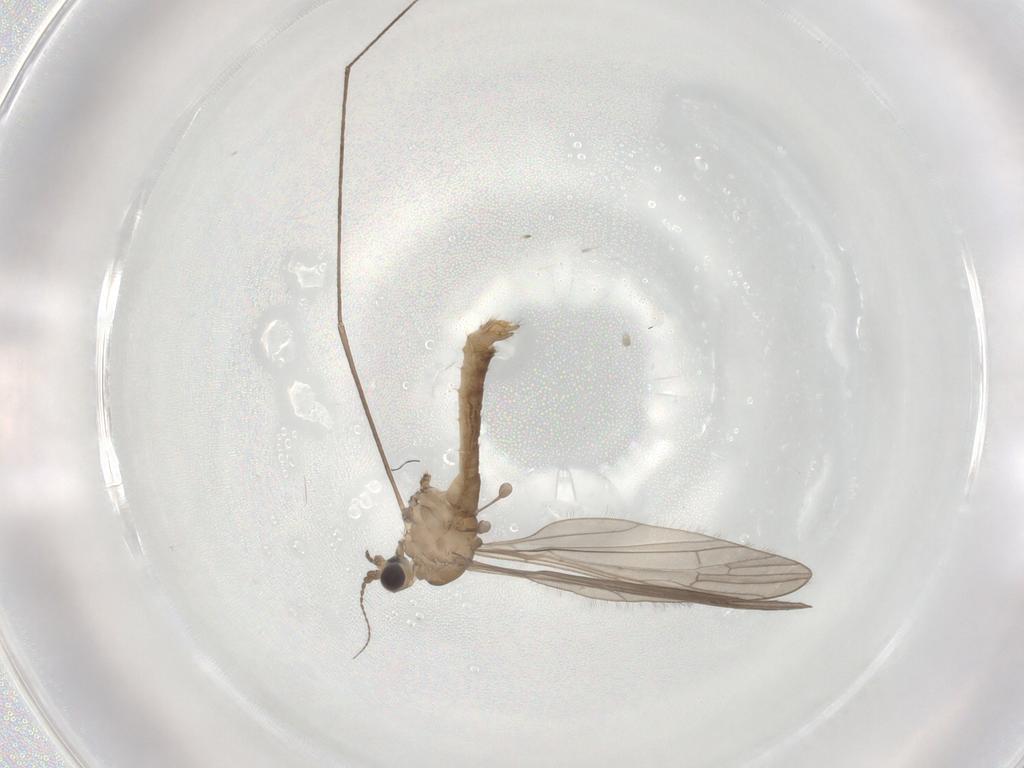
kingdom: Animalia
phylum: Arthropoda
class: Insecta
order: Diptera
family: Limoniidae
